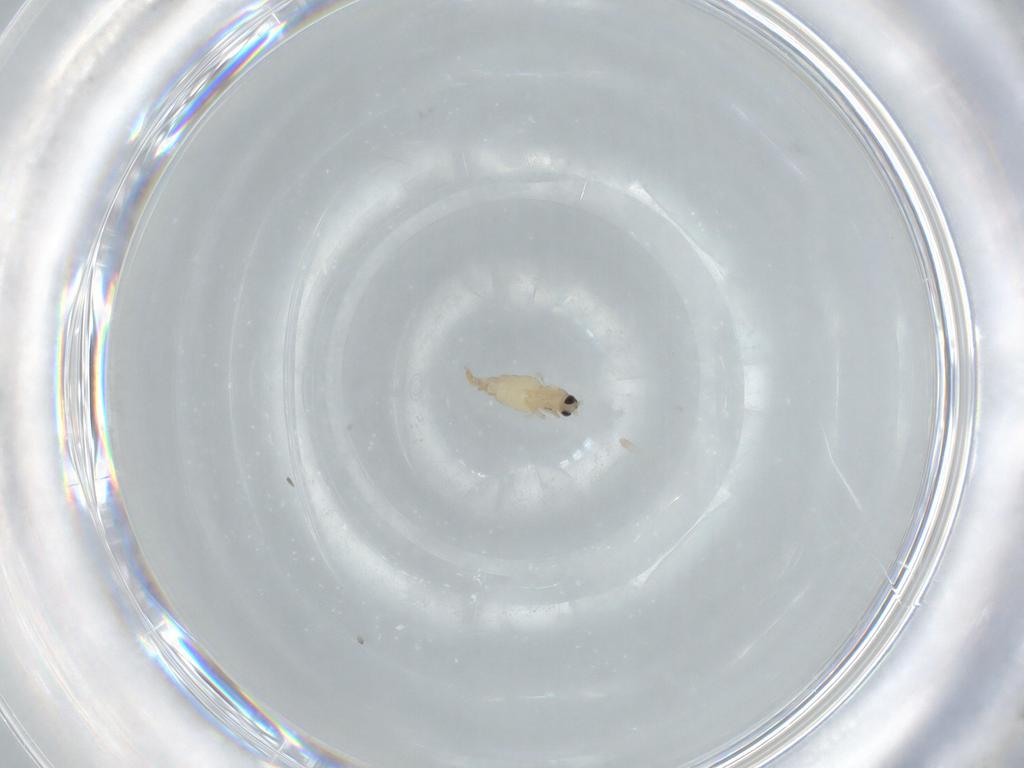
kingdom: Animalia
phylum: Arthropoda
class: Insecta
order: Diptera
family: Cecidomyiidae
